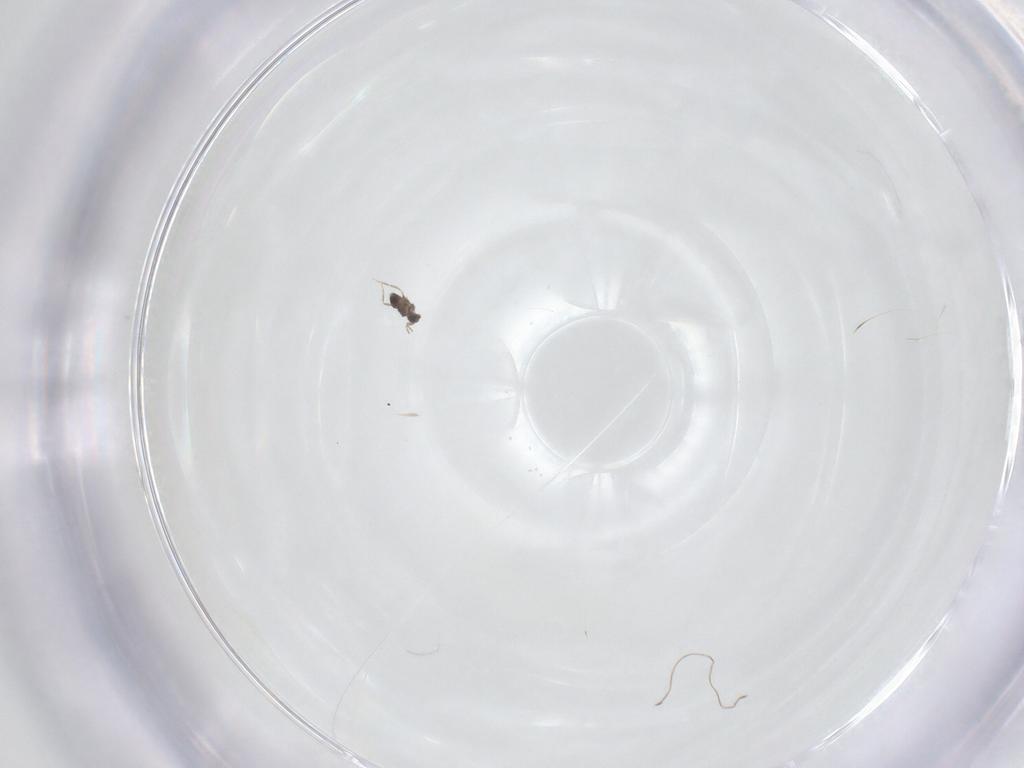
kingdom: Animalia
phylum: Arthropoda
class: Insecta
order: Hymenoptera
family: Mymaridae
